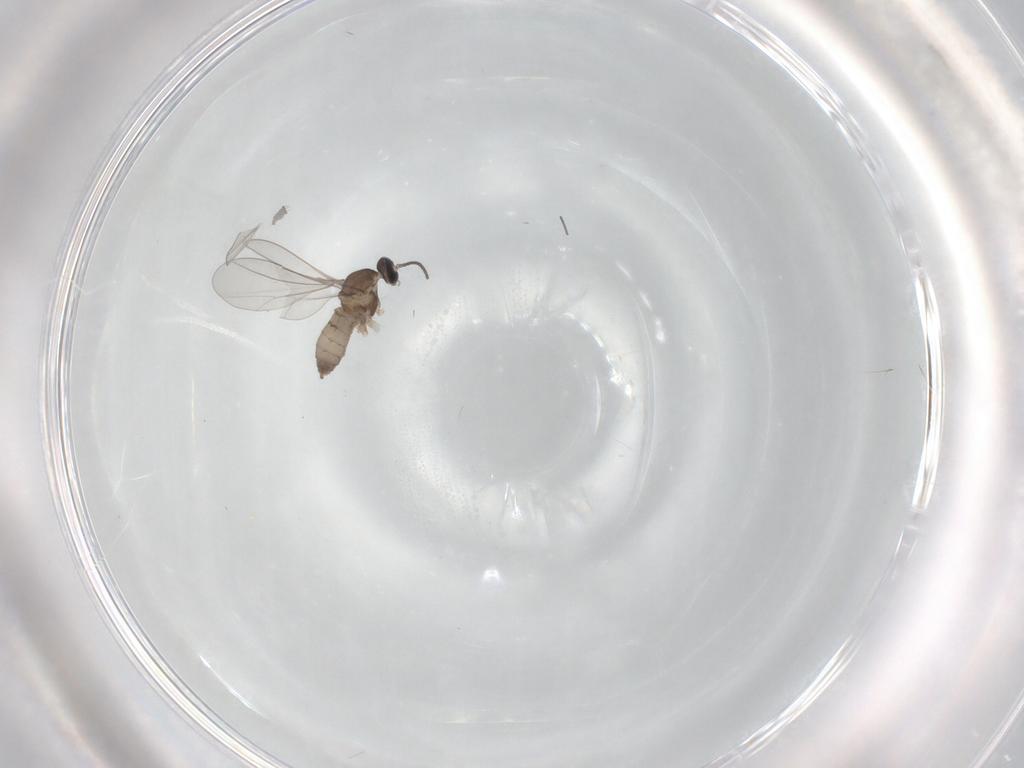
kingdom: Animalia
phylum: Arthropoda
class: Insecta
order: Diptera
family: Cecidomyiidae
